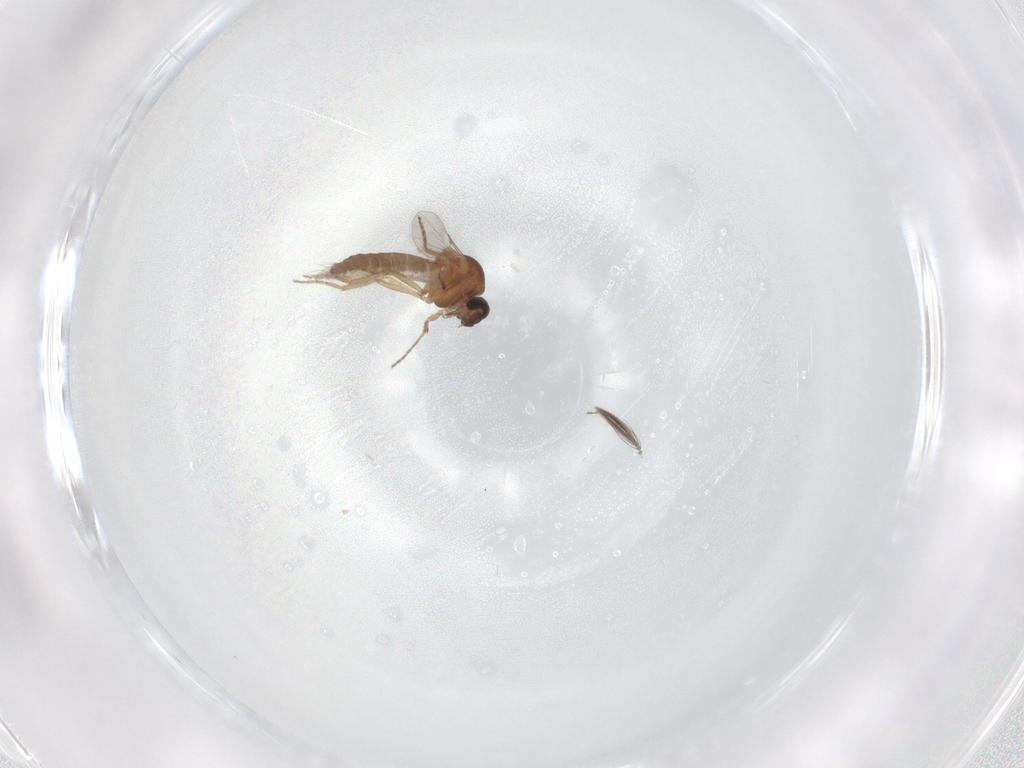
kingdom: Animalia
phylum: Arthropoda
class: Insecta
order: Diptera
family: Ceratopogonidae
